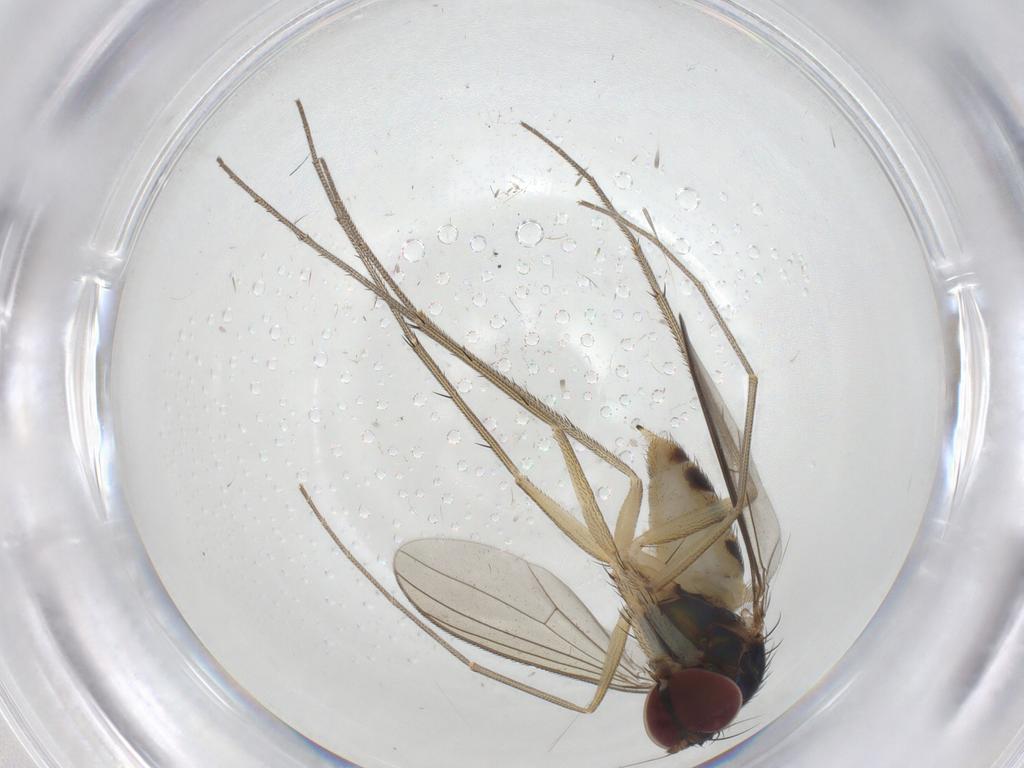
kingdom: Animalia
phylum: Arthropoda
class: Insecta
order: Diptera
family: Dolichopodidae
